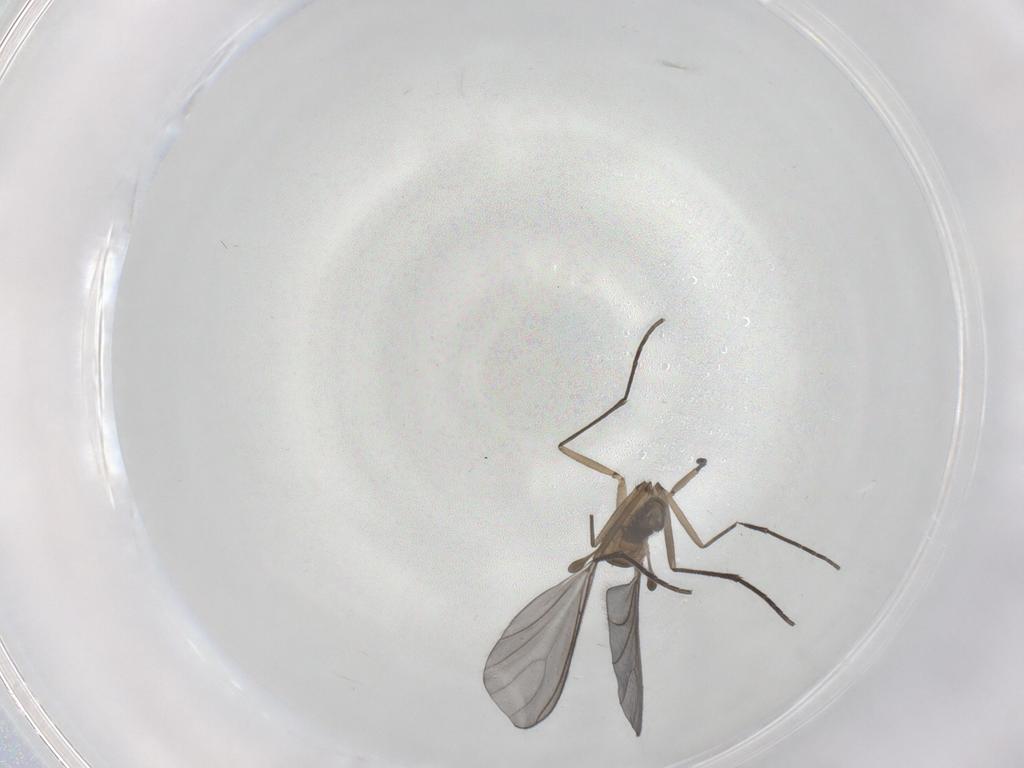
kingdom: Animalia
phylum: Arthropoda
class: Insecta
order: Diptera
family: Sciaridae
